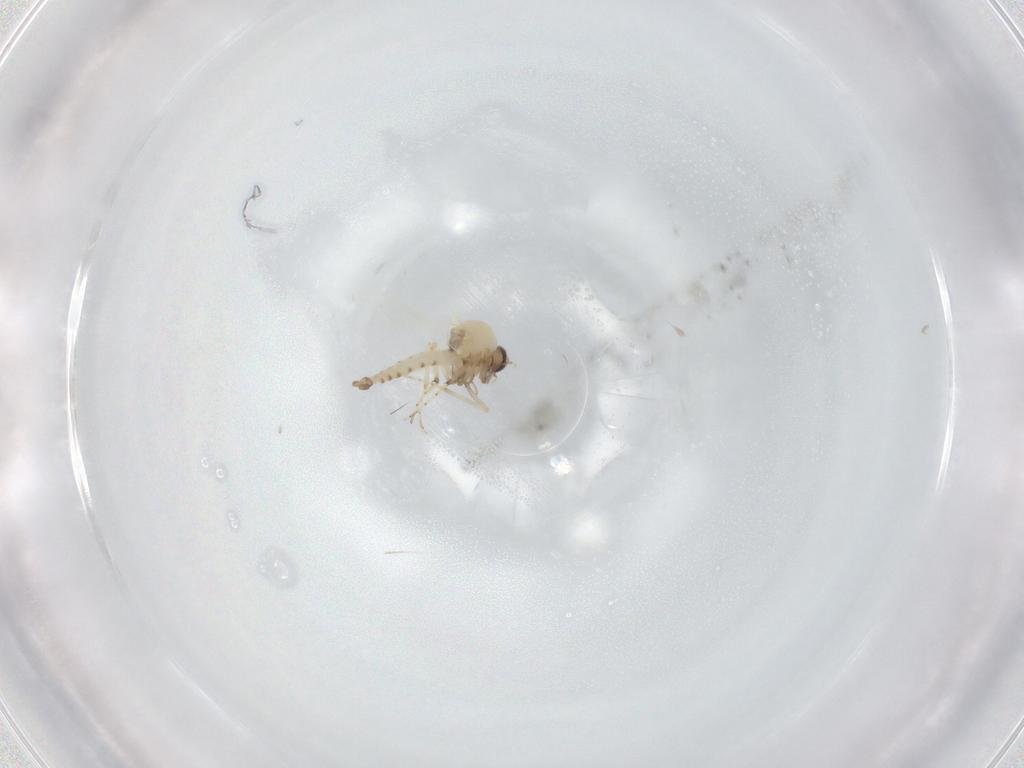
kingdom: Animalia
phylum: Arthropoda
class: Insecta
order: Diptera
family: Ceratopogonidae
